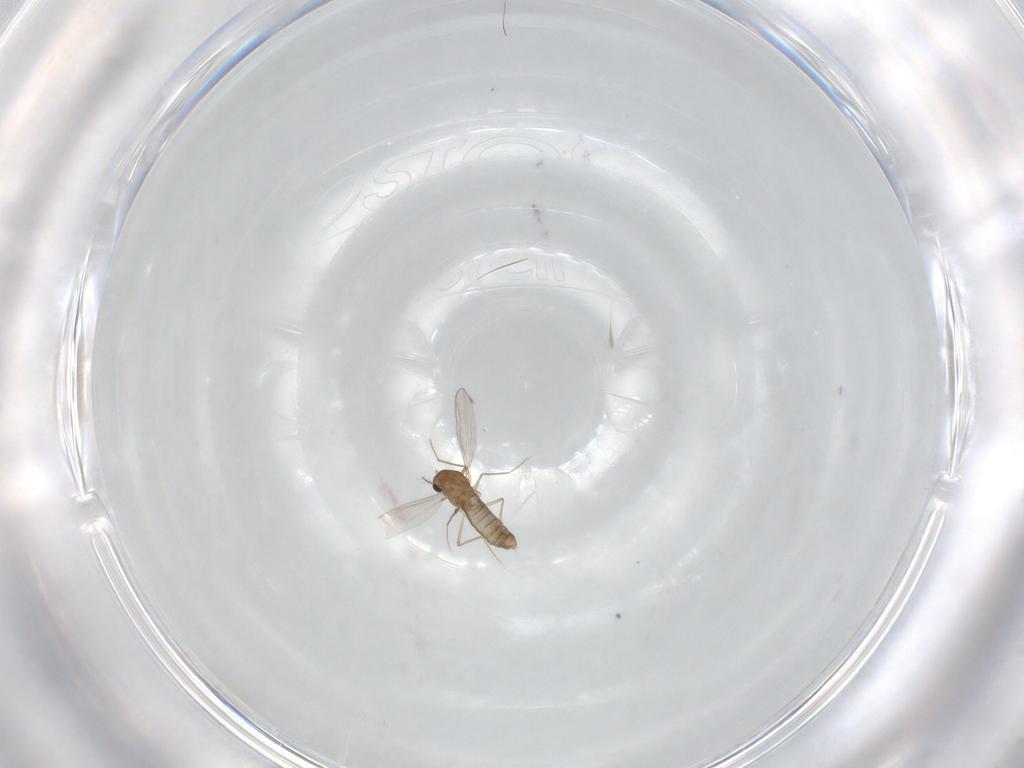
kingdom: Animalia
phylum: Arthropoda
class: Insecta
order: Diptera
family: Chironomidae
